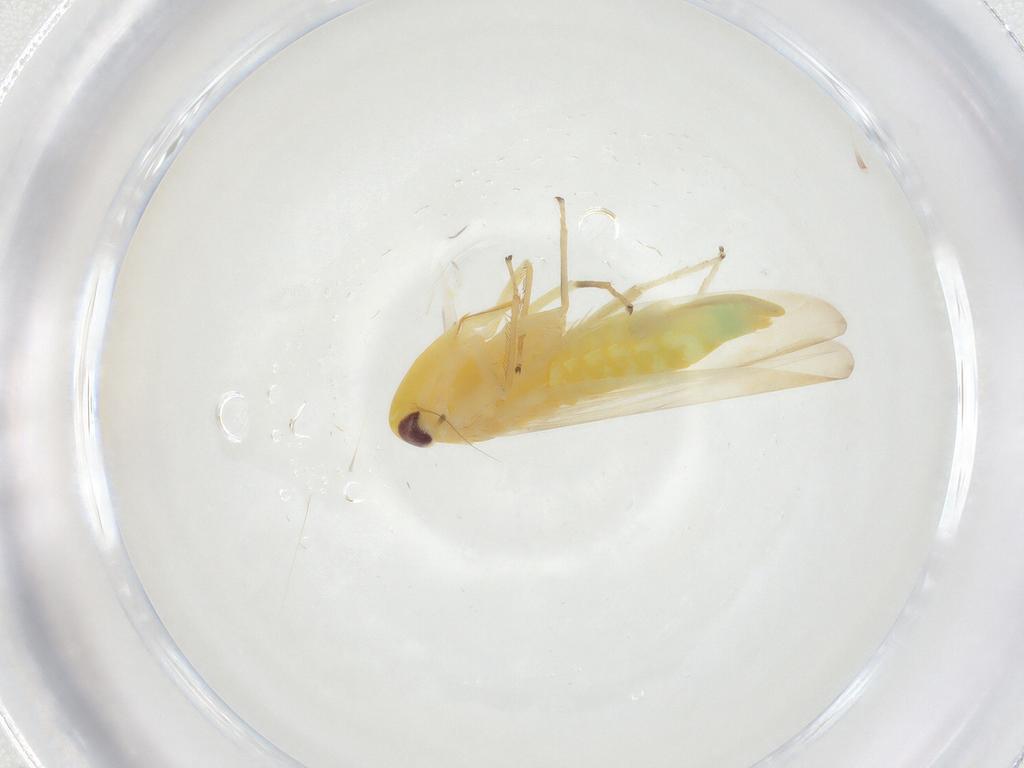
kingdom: Animalia
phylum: Arthropoda
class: Insecta
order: Hemiptera
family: Cicadellidae
